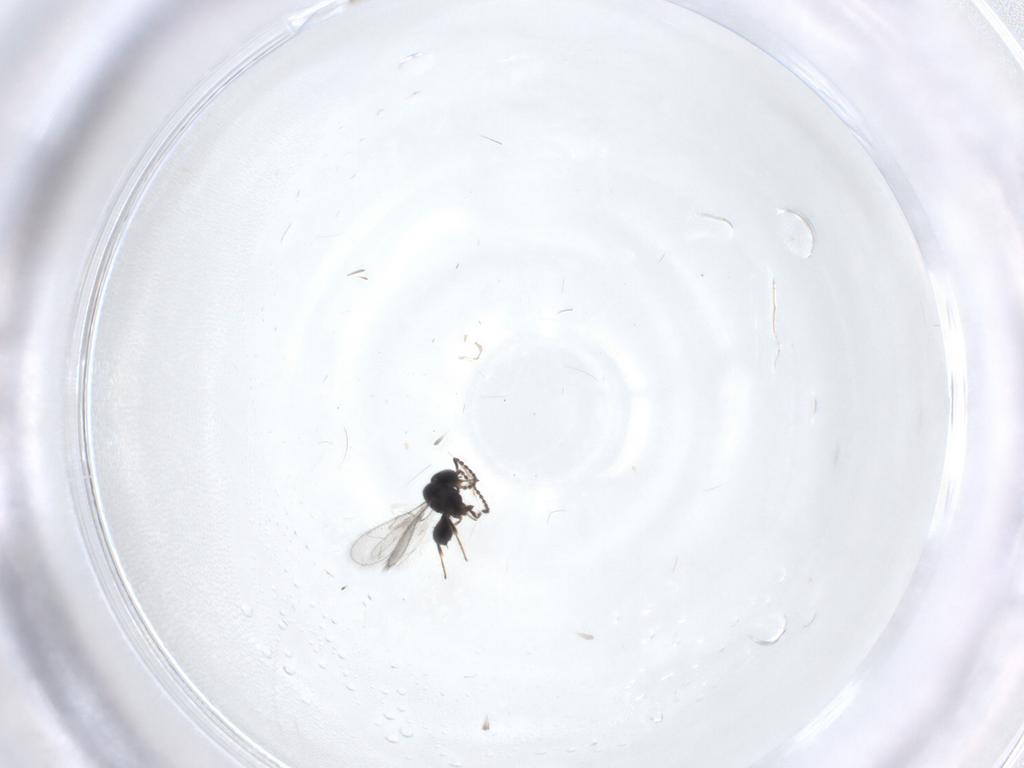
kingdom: Animalia
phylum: Arthropoda
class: Insecta
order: Hymenoptera
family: Scelionidae
